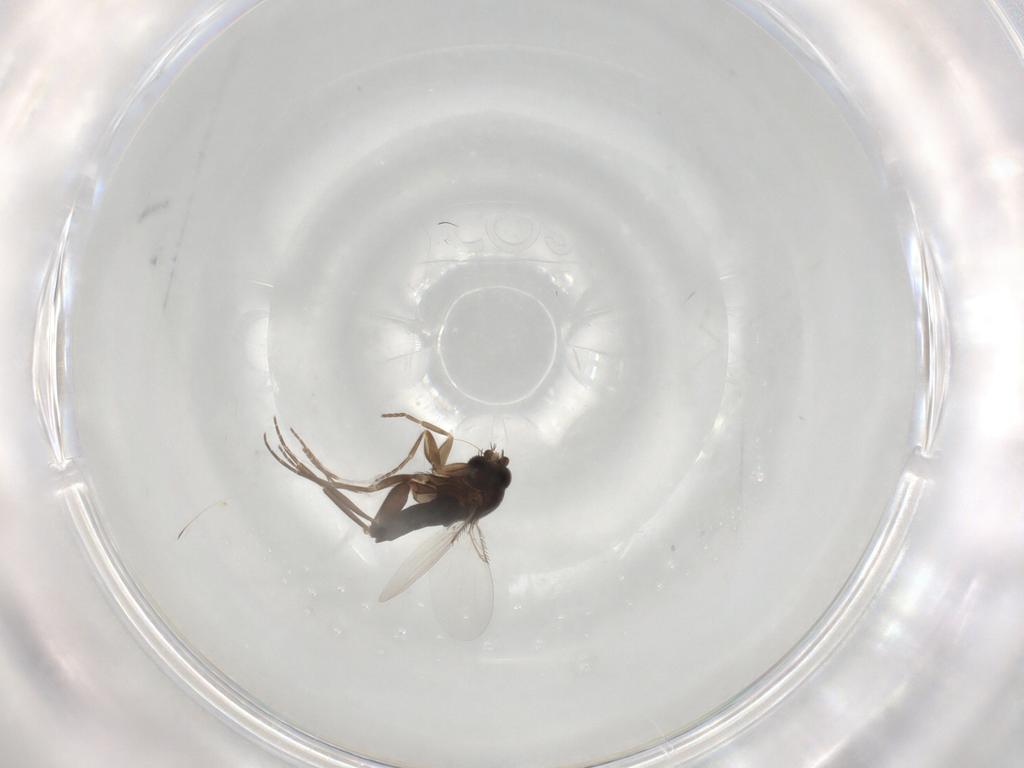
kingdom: Animalia
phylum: Arthropoda
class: Insecta
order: Diptera
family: Phoridae
